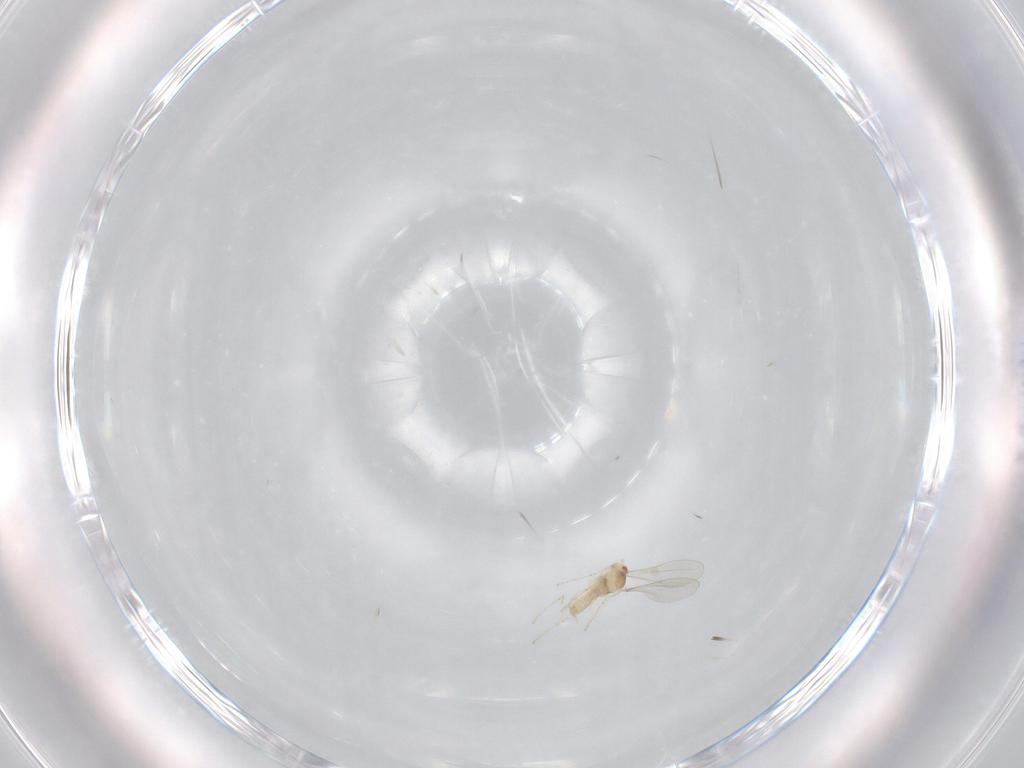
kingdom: Animalia
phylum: Arthropoda
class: Insecta
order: Diptera
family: Cecidomyiidae
